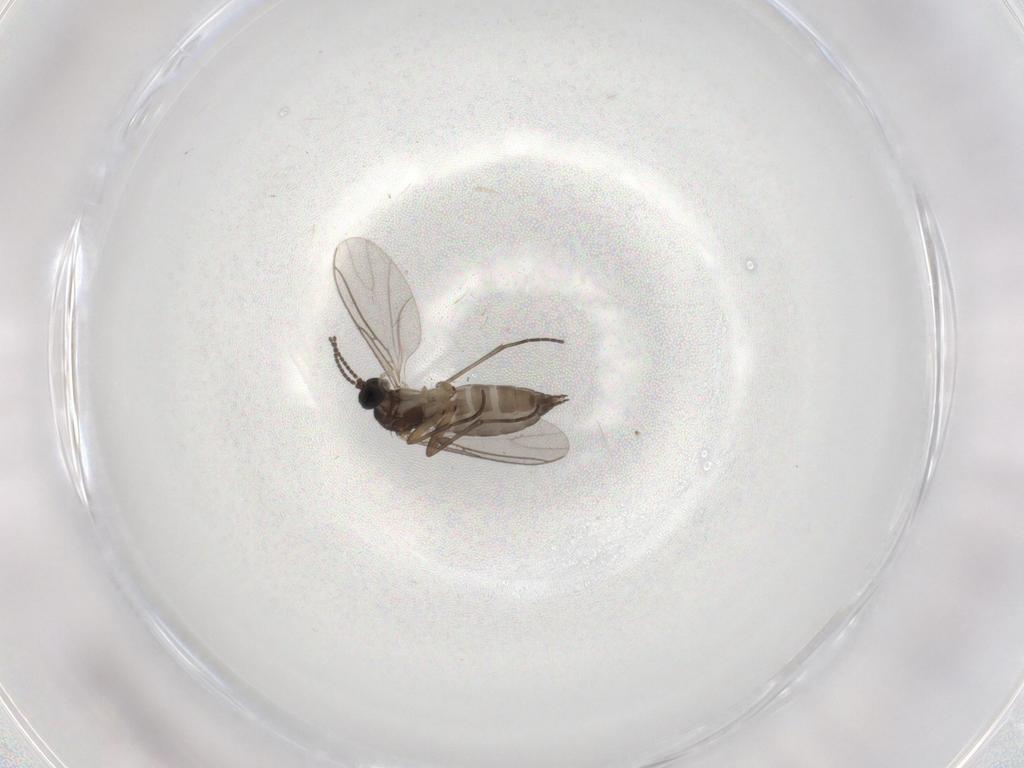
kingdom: Animalia
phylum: Arthropoda
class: Insecta
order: Diptera
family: Sciaridae
